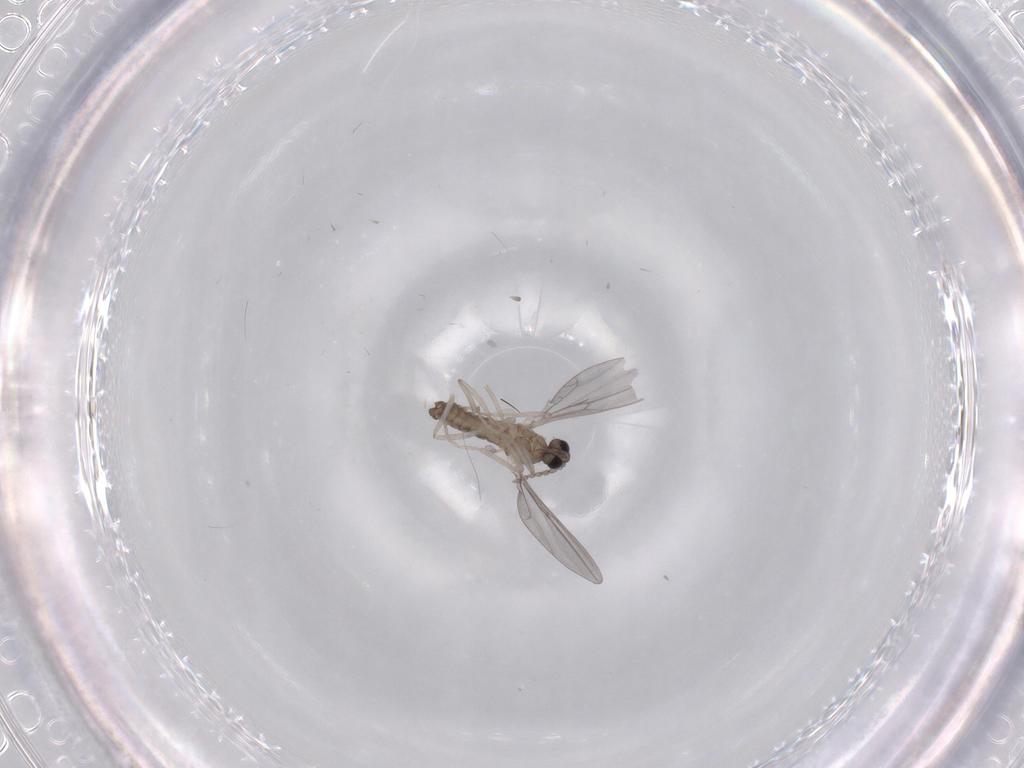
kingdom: Animalia
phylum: Arthropoda
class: Insecta
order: Diptera
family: Cecidomyiidae
